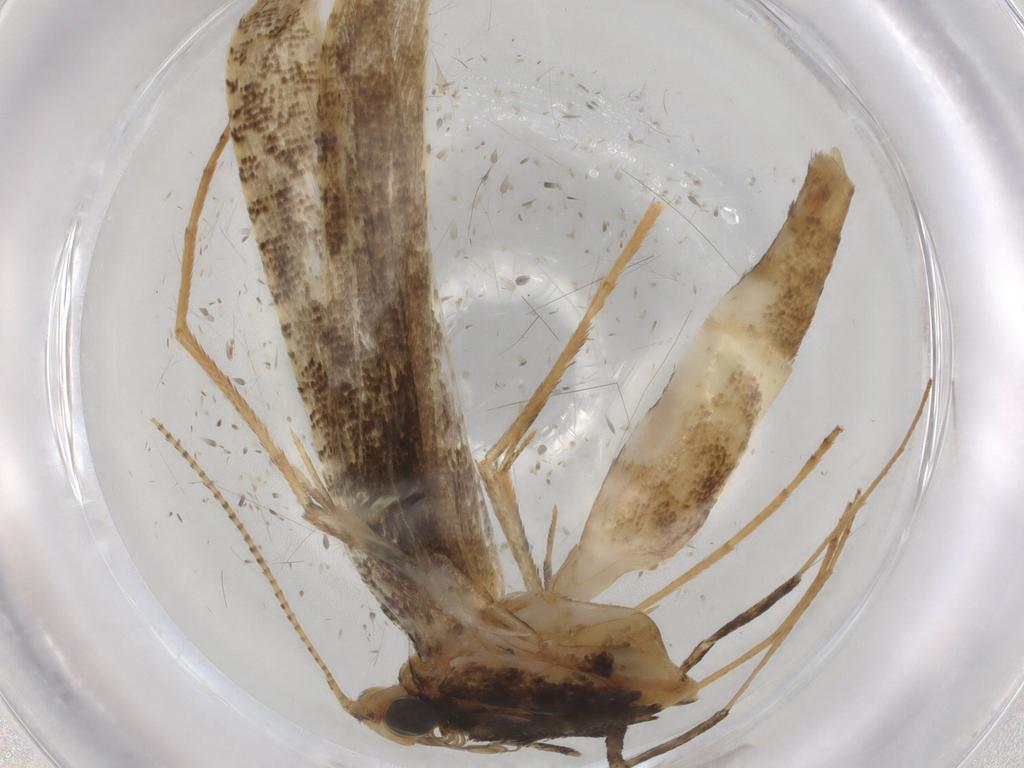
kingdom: Animalia
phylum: Arthropoda
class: Insecta
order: Lepidoptera
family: Gracillariidae
